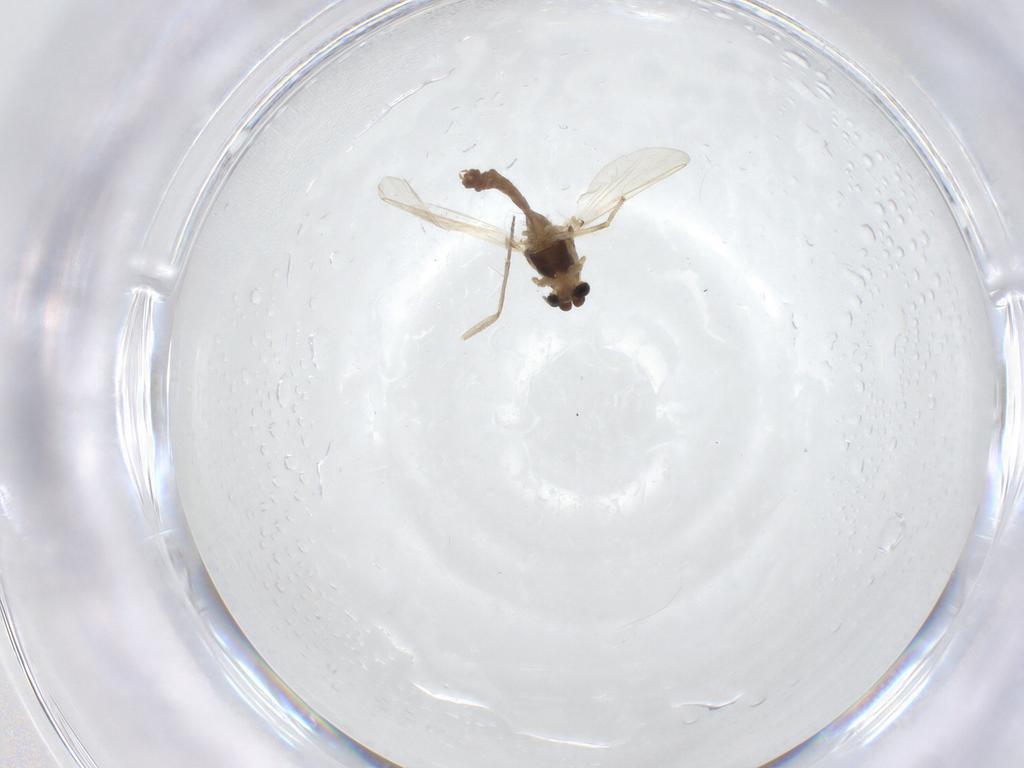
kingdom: Animalia
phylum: Arthropoda
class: Insecta
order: Diptera
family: Chironomidae
